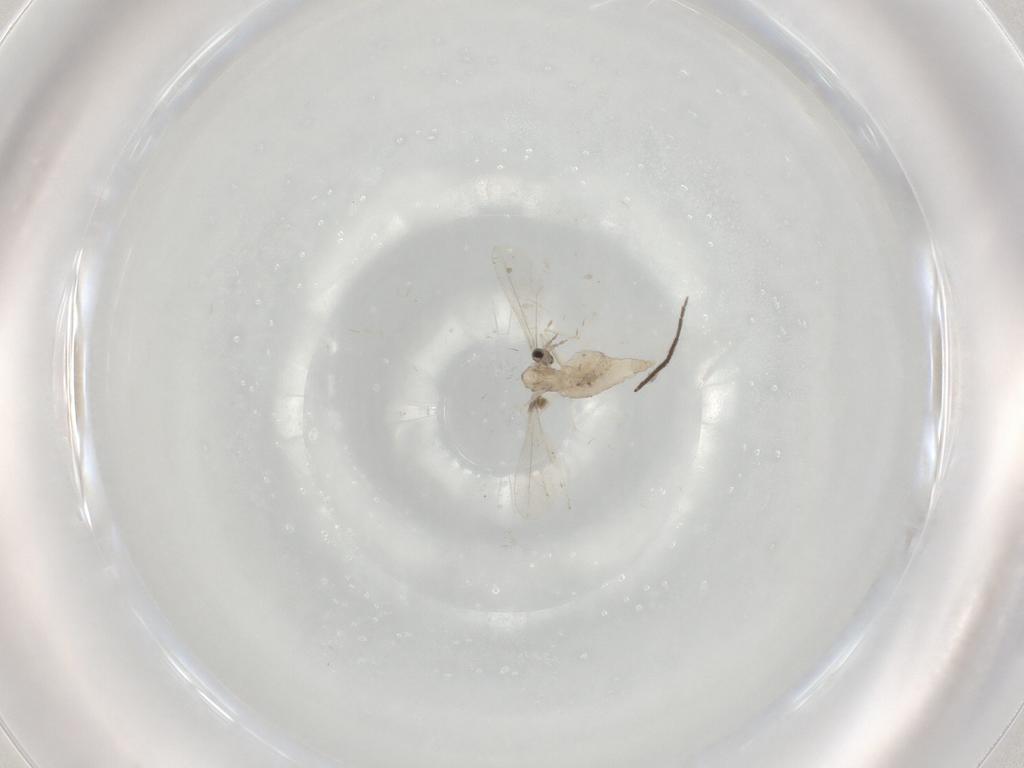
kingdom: Animalia
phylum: Arthropoda
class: Insecta
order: Diptera
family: Cecidomyiidae
